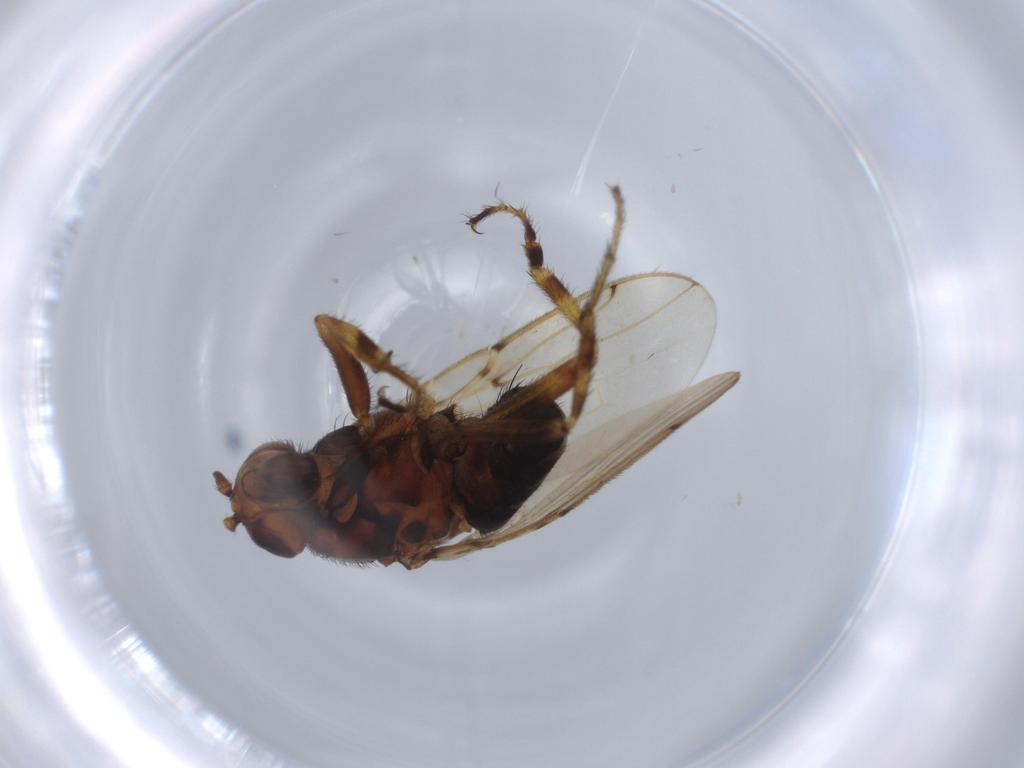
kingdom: Animalia
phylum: Arthropoda
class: Insecta
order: Diptera
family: Sphaeroceridae
